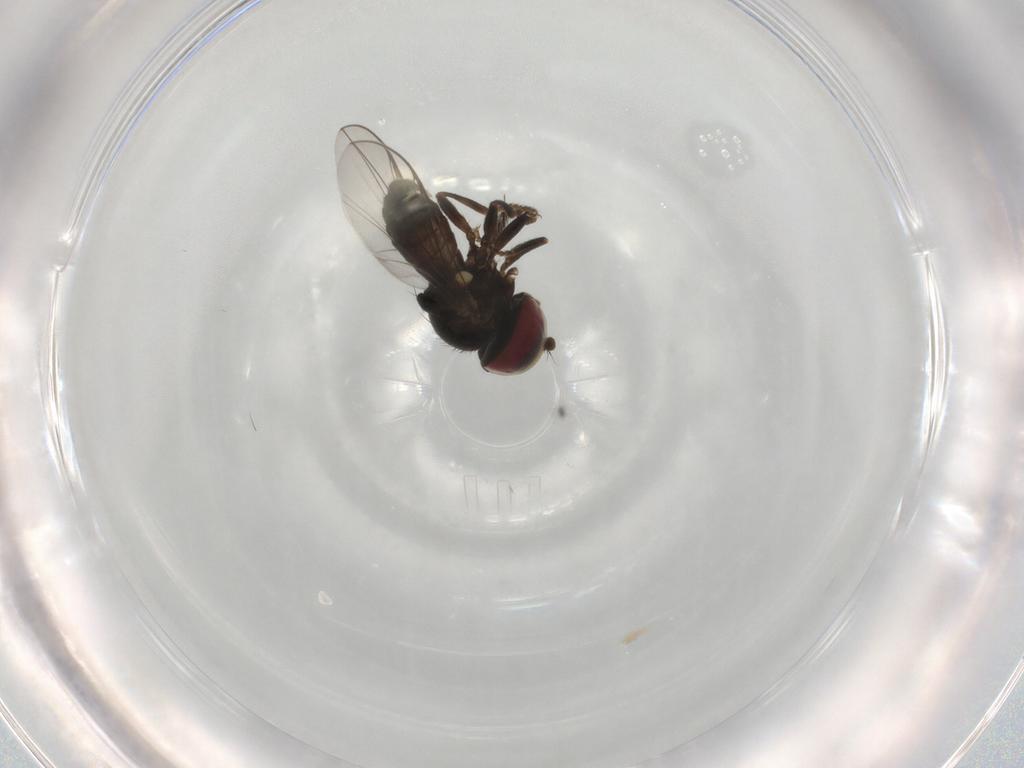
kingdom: Animalia
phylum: Arthropoda
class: Insecta
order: Diptera
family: Pipunculidae
